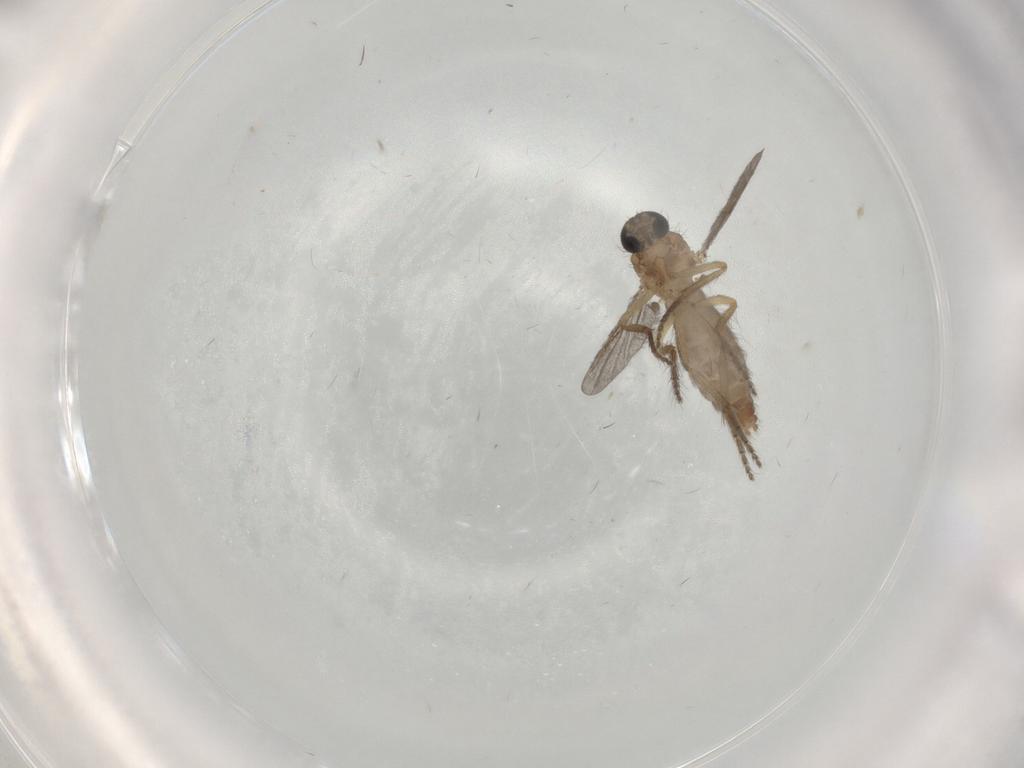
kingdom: Animalia
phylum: Arthropoda
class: Insecta
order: Diptera
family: Ceratopogonidae
